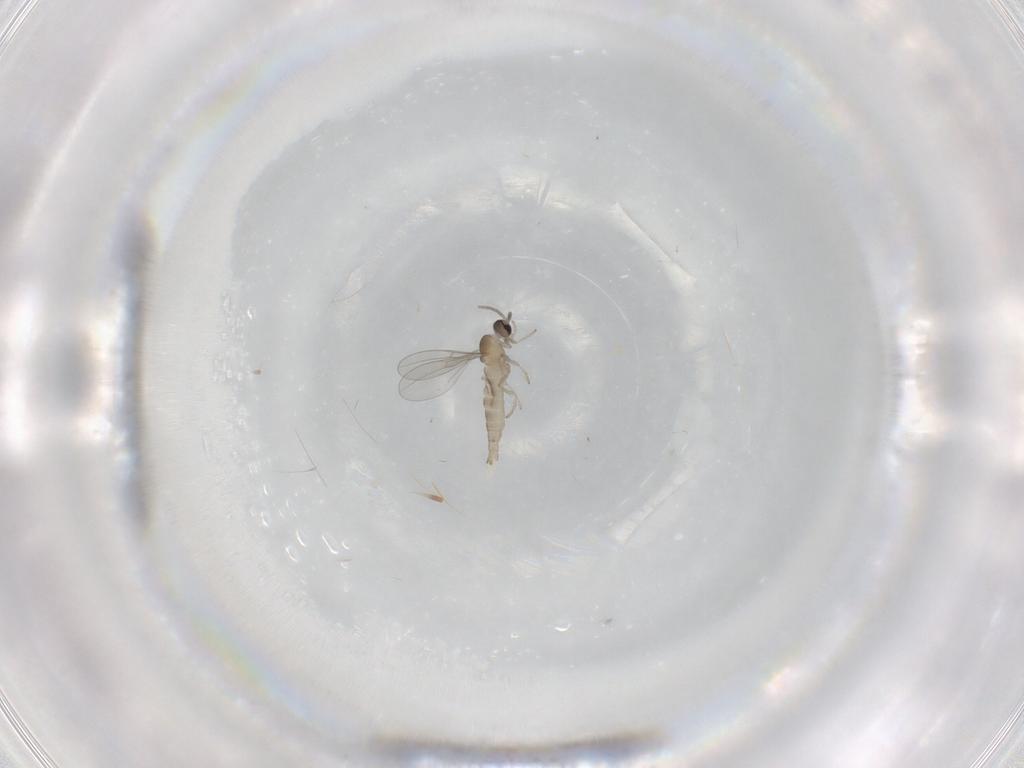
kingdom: Animalia
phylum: Arthropoda
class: Insecta
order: Diptera
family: Cecidomyiidae
